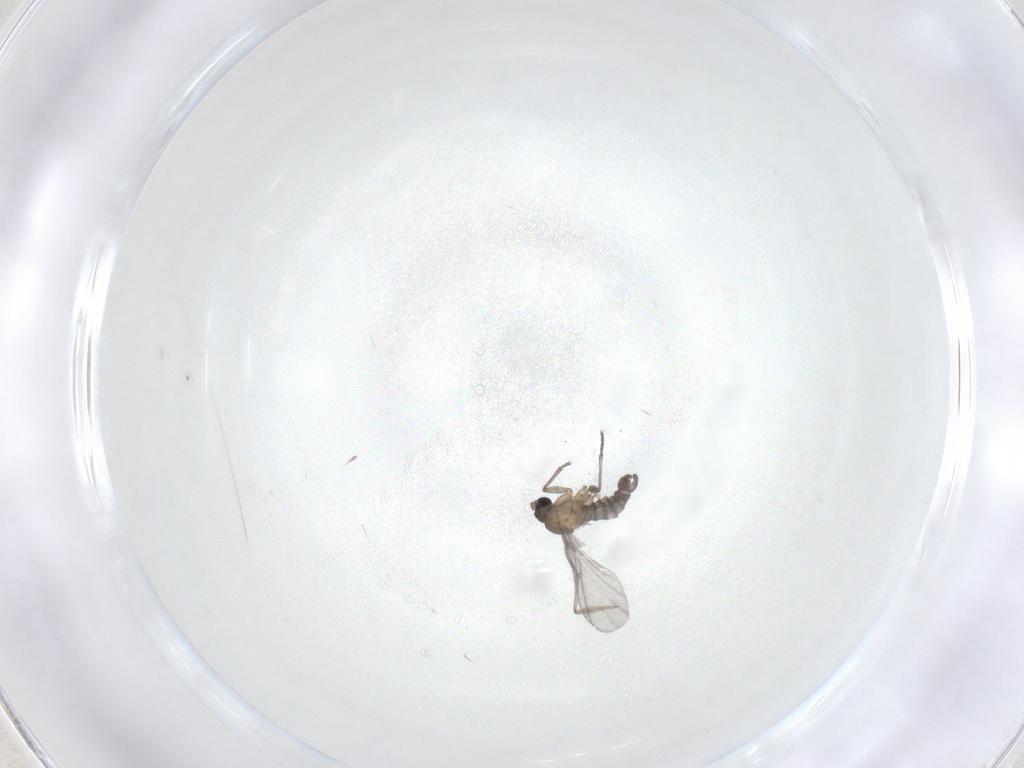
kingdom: Animalia
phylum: Arthropoda
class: Insecta
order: Diptera
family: Sciaridae
